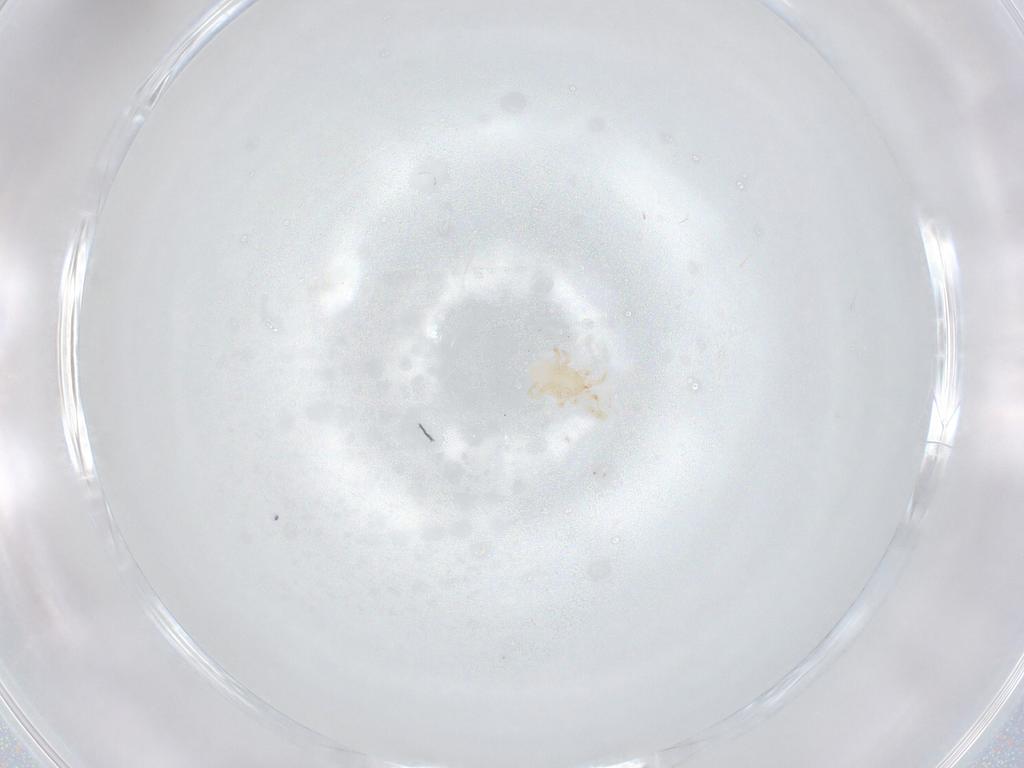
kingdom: Animalia
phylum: Arthropoda
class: Arachnida
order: Mesostigmata
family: Melicharidae
